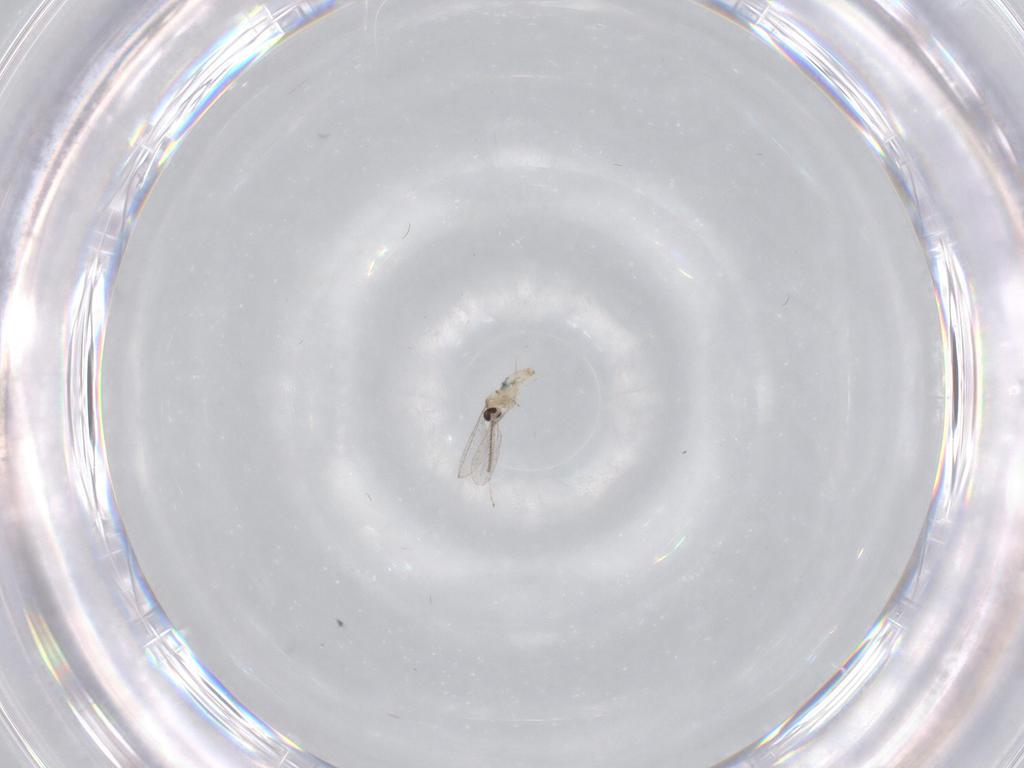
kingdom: Animalia
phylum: Arthropoda
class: Insecta
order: Diptera
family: Cecidomyiidae
